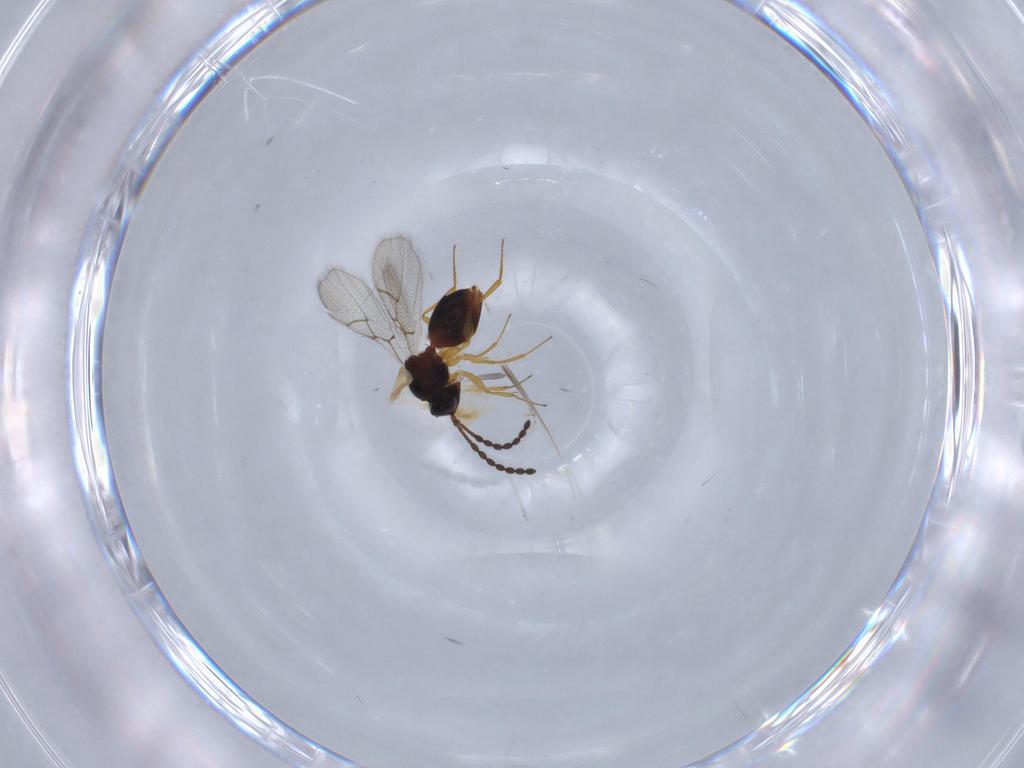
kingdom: Animalia
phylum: Arthropoda
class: Insecta
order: Hymenoptera
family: Figitidae
